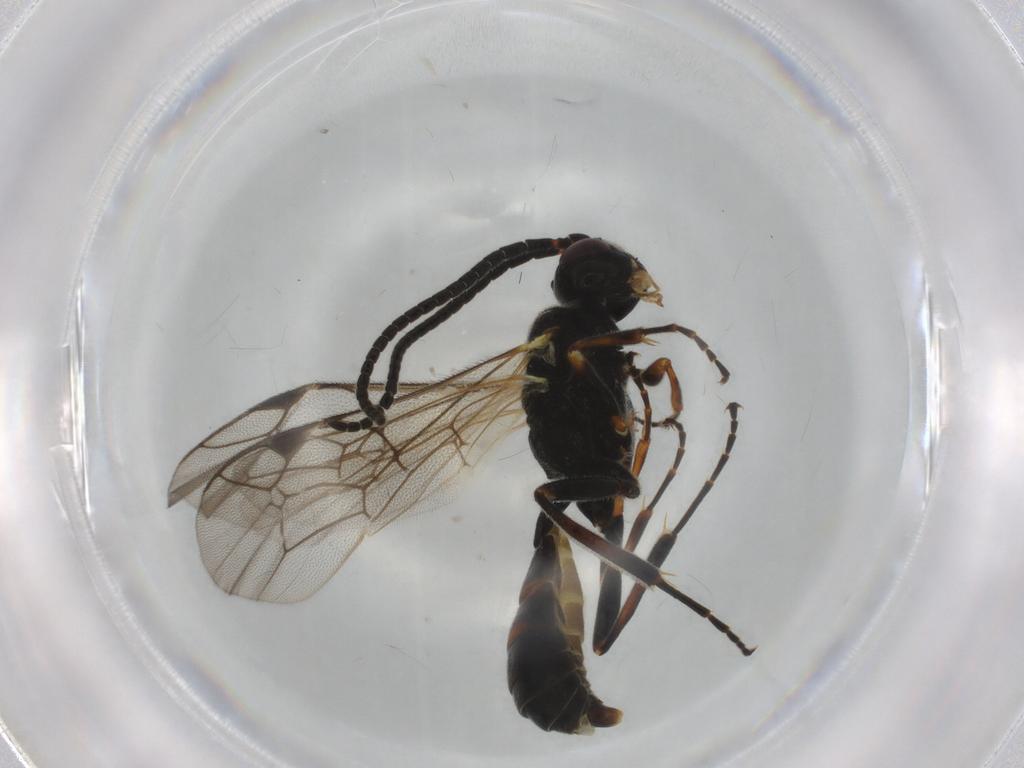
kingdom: Animalia
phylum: Arthropoda
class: Insecta
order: Hymenoptera
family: Ichneumonidae
